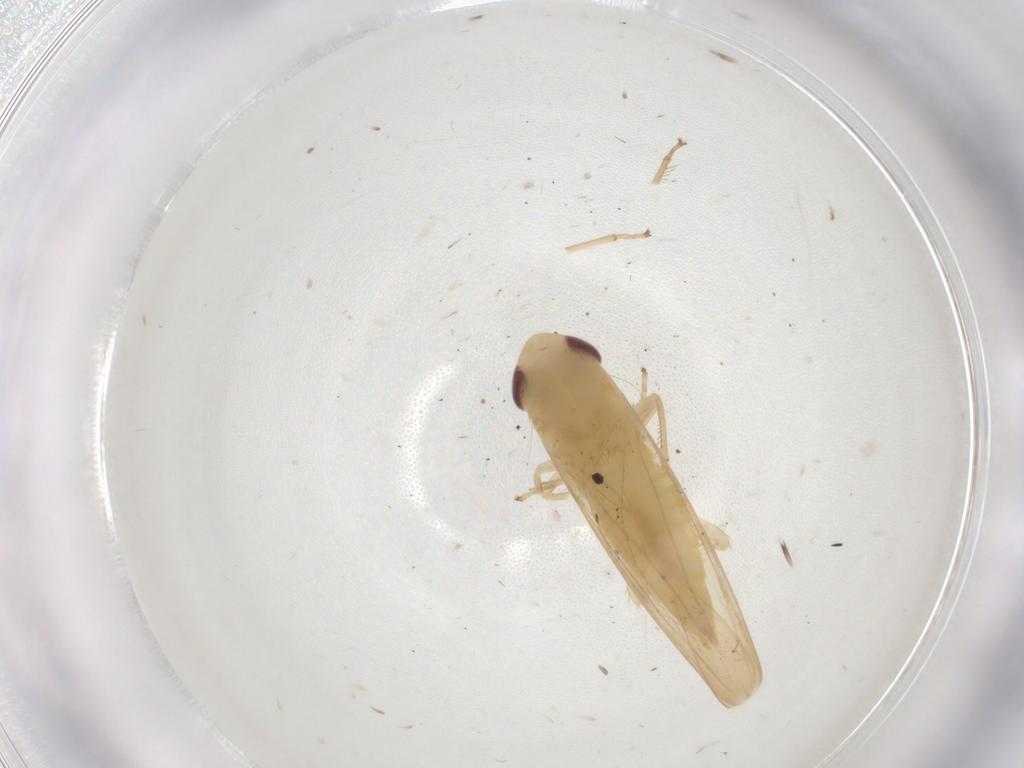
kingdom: Animalia
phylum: Arthropoda
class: Insecta
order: Hemiptera
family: Cicadellidae
